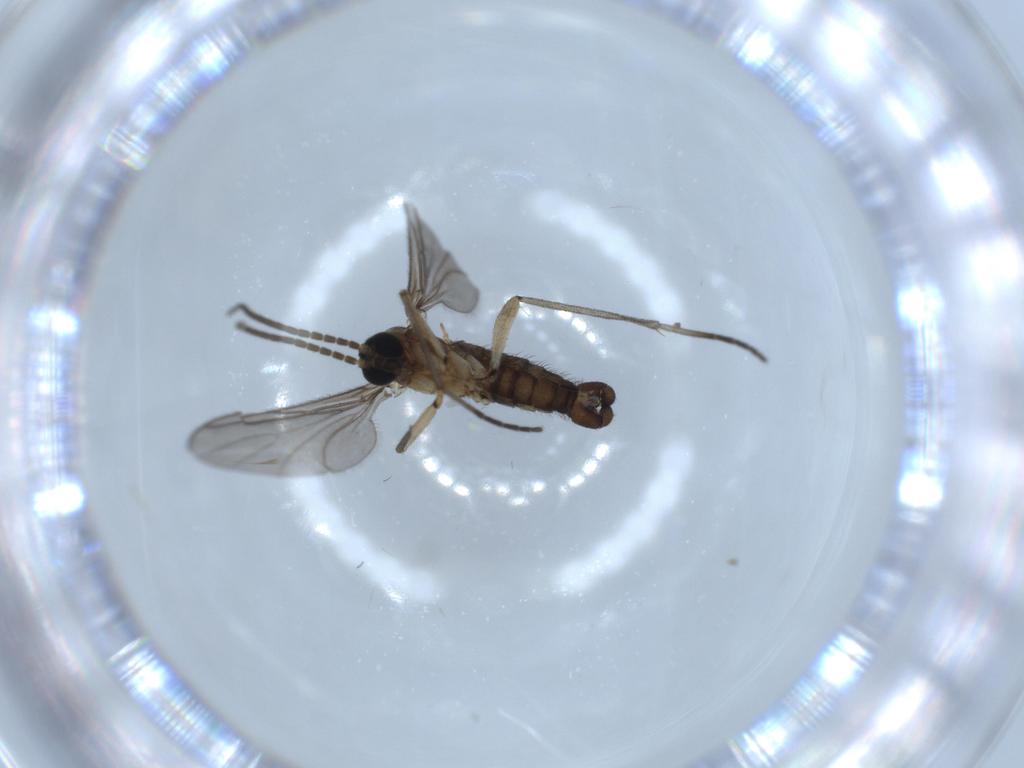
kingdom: Animalia
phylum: Arthropoda
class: Insecta
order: Diptera
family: Sciaridae
